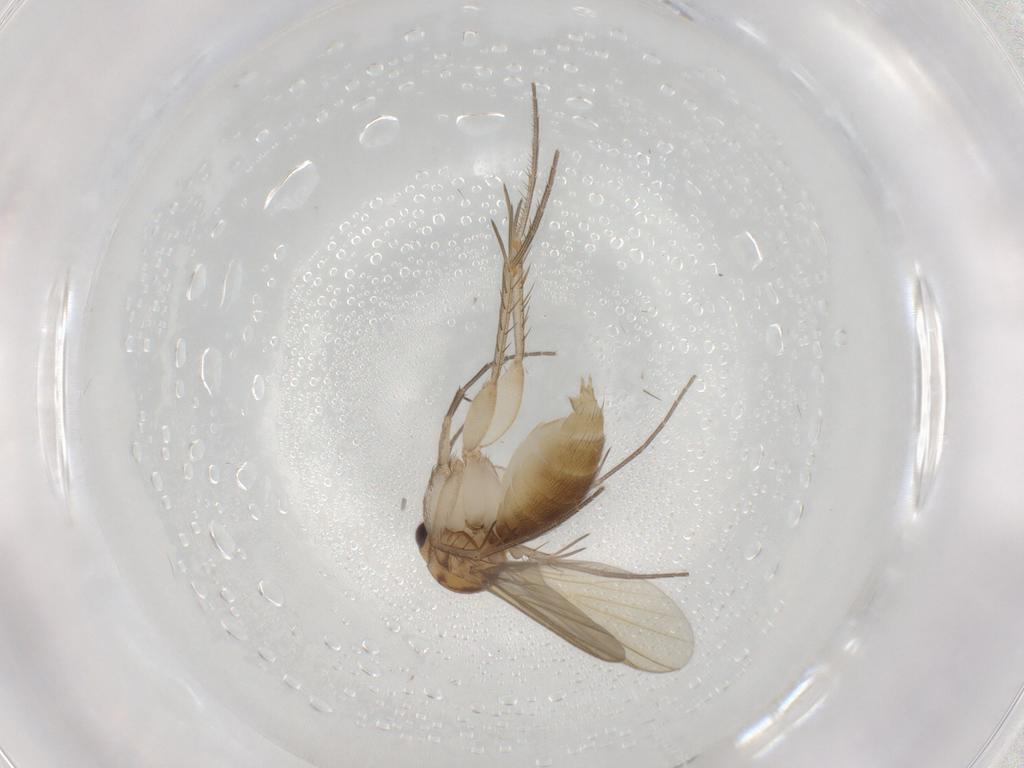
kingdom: Animalia
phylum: Arthropoda
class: Insecta
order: Diptera
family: Mycetophilidae
